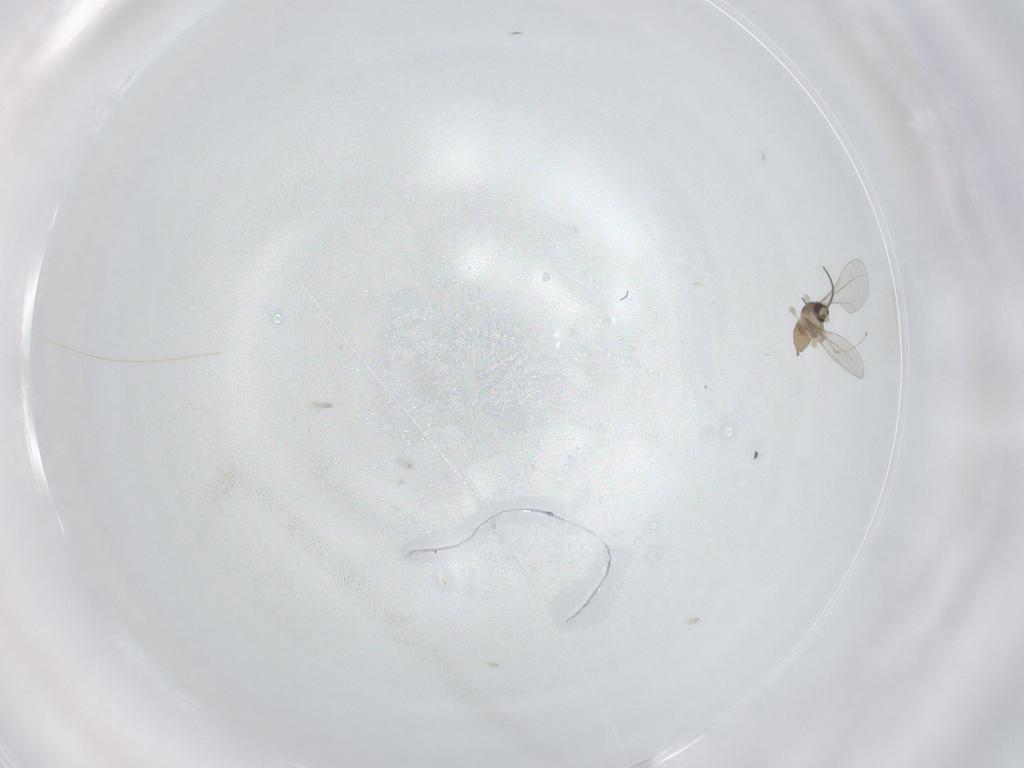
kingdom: Animalia
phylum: Arthropoda
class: Insecta
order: Diptera
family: Cecidomyiidae
